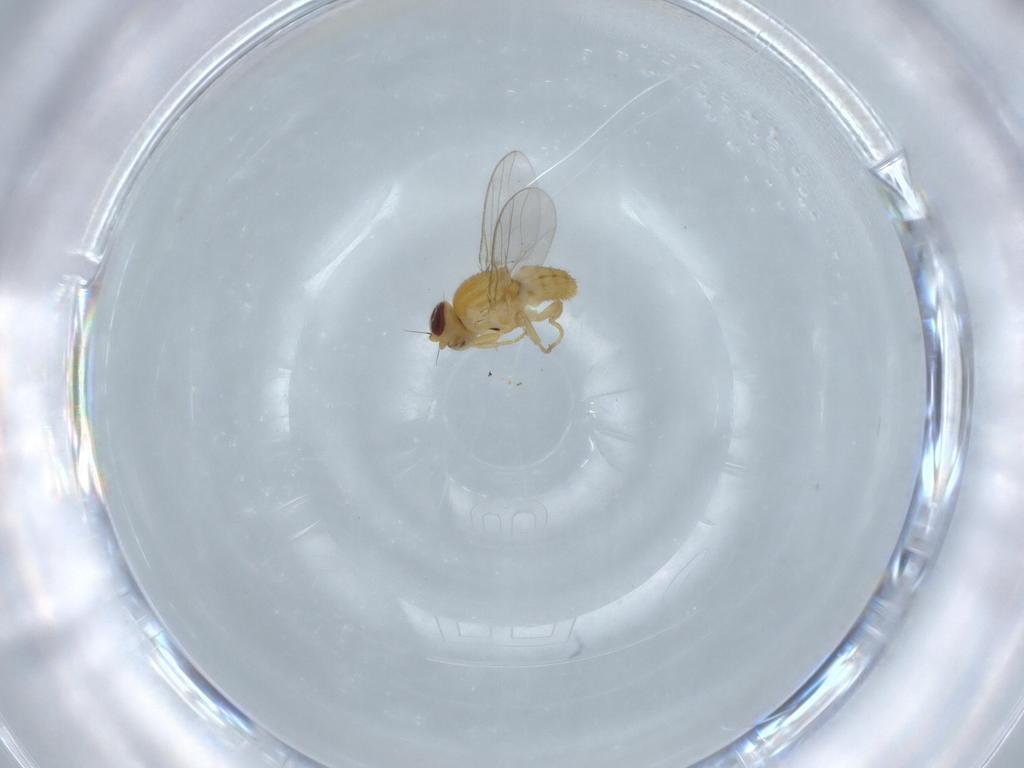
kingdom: Animalia
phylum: Arthropoda
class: Insecta
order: Diptera
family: Chloropidae
